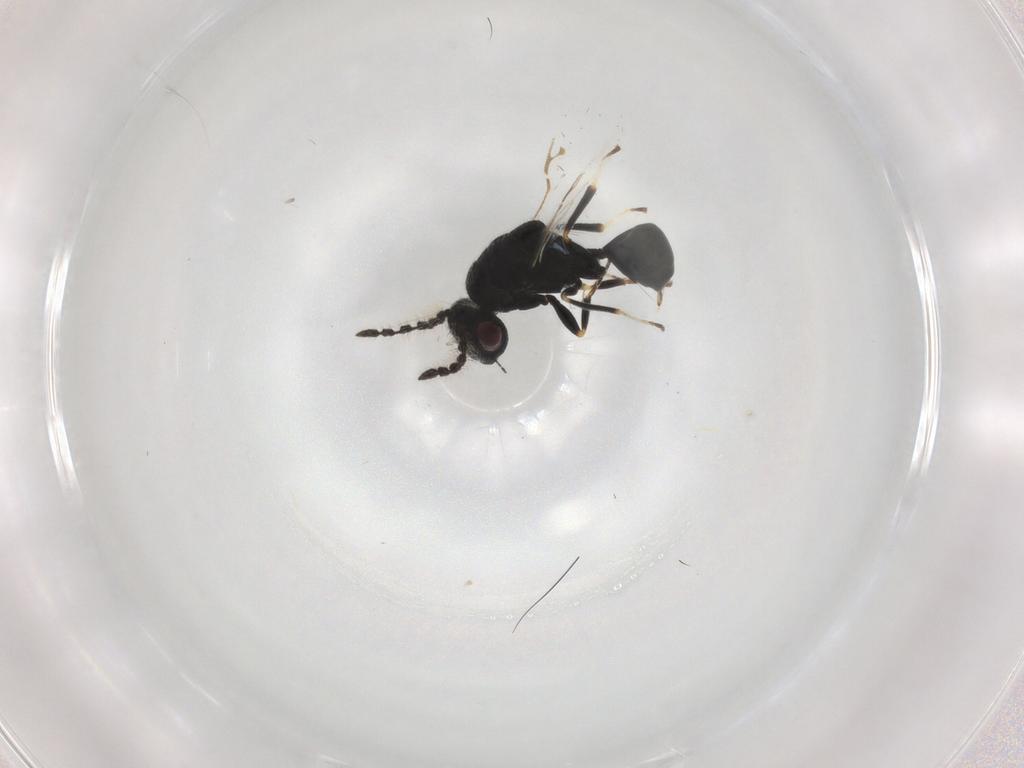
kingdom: Animalia
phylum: Arthropoda
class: Insecta
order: Hymenoptera
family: Eurytomidae
